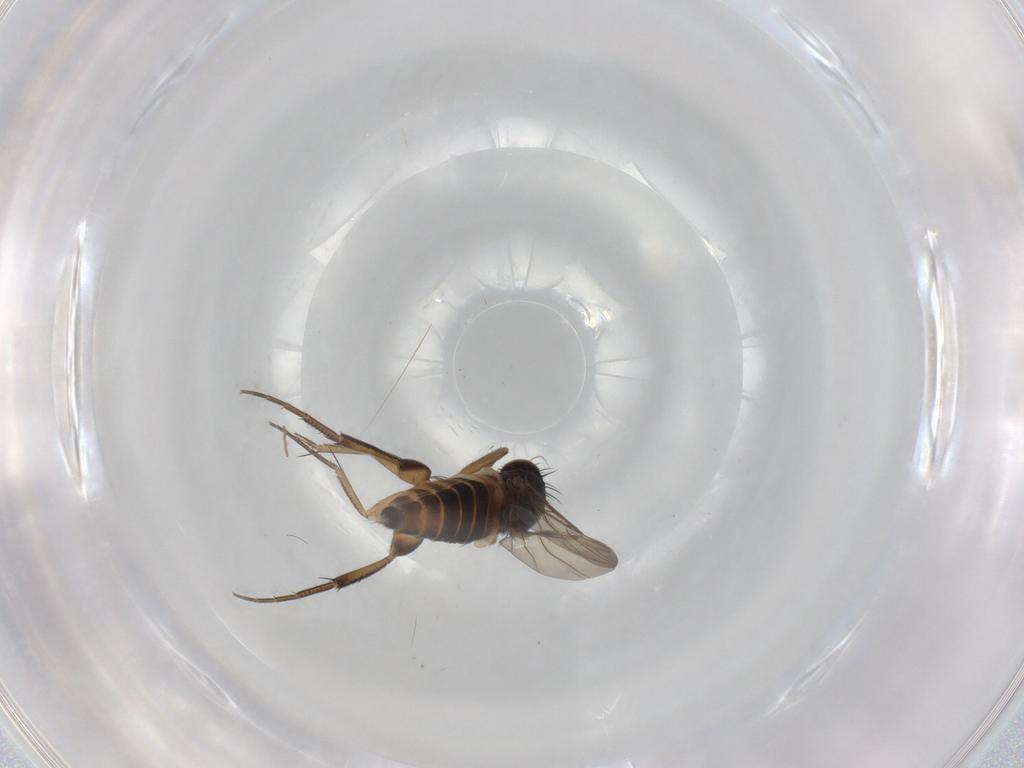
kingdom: Animalia
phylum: Arthropoda
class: Insecta
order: Diptera
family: Phoridae
